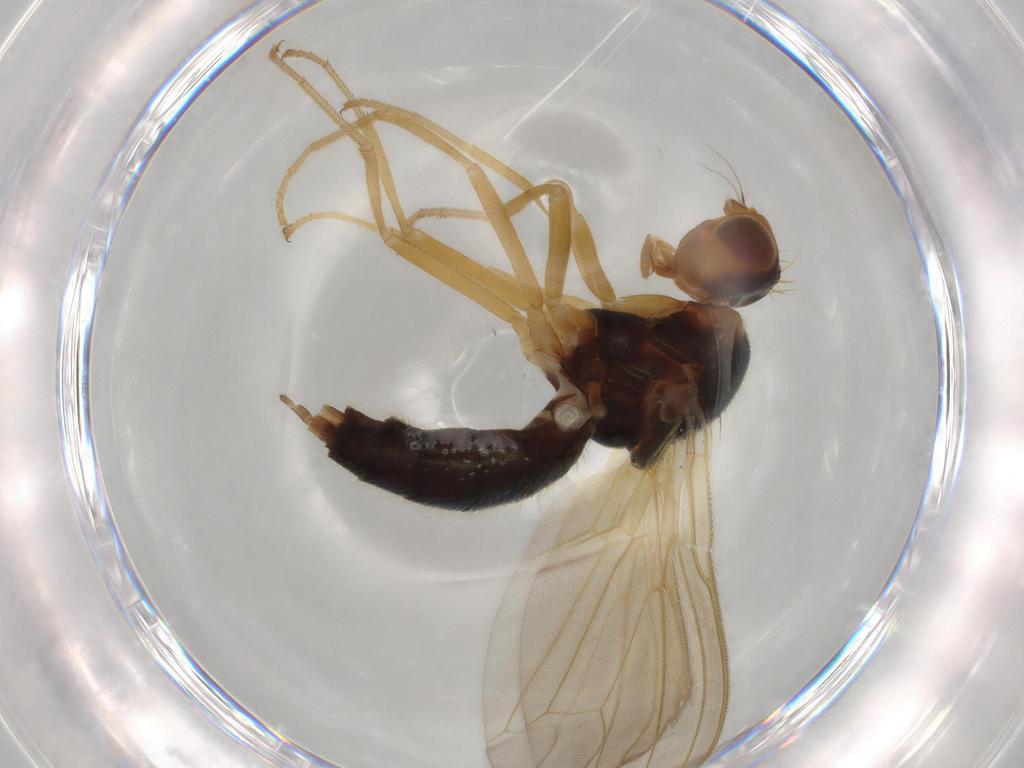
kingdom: Animalia
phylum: Arthropoda
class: Insecta
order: Diptera
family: Psilidae
